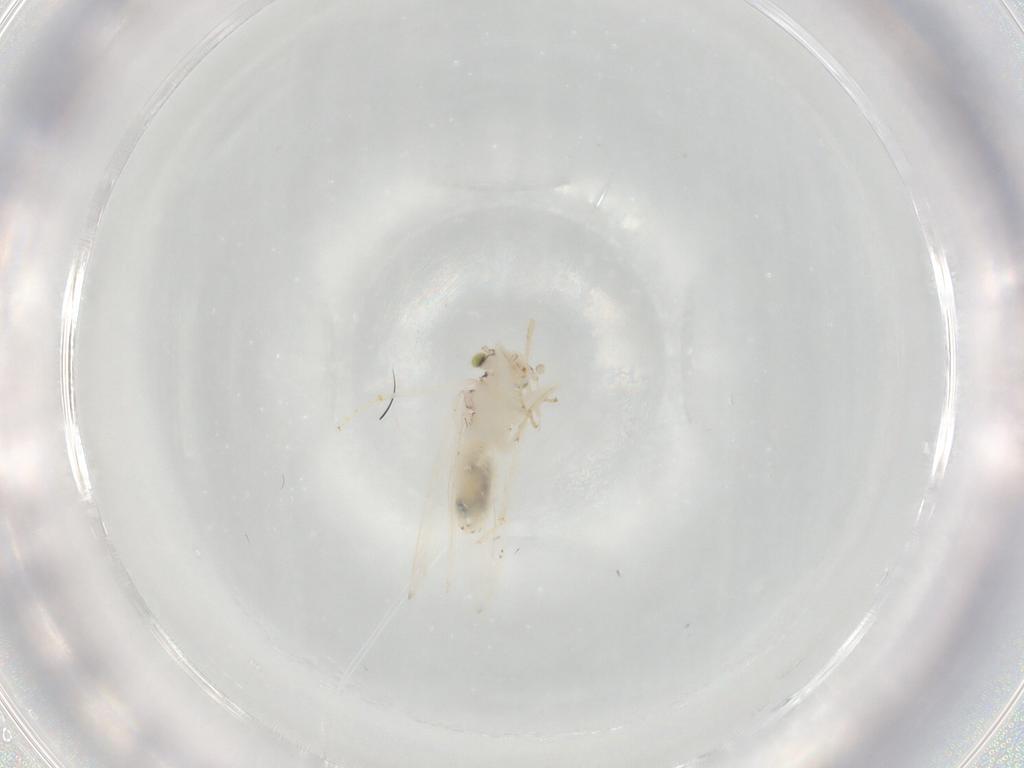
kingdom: Animalia
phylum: Arthropoda
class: Insecta
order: Psocodea
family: Lepidopsocidae
